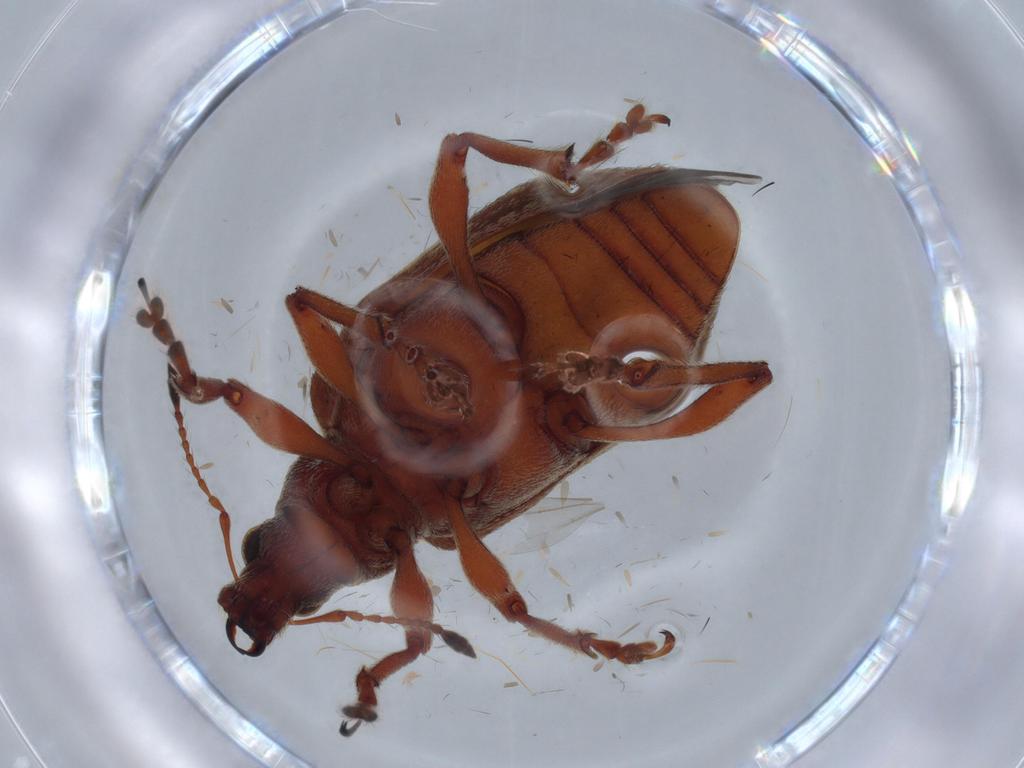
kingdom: Animalia
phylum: Arthropoda
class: Insecta
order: Coleoptera
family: Curculionidae
